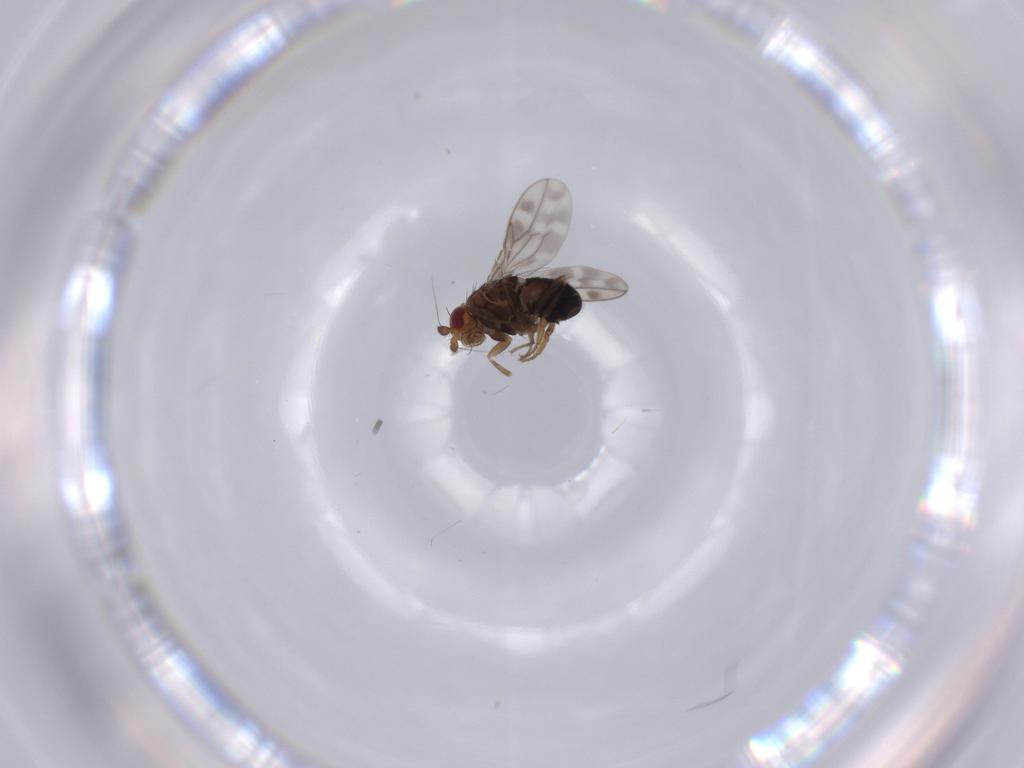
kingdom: Animalia
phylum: Arthropoda
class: Insecta
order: Diptera
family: Sphaeroceridae
